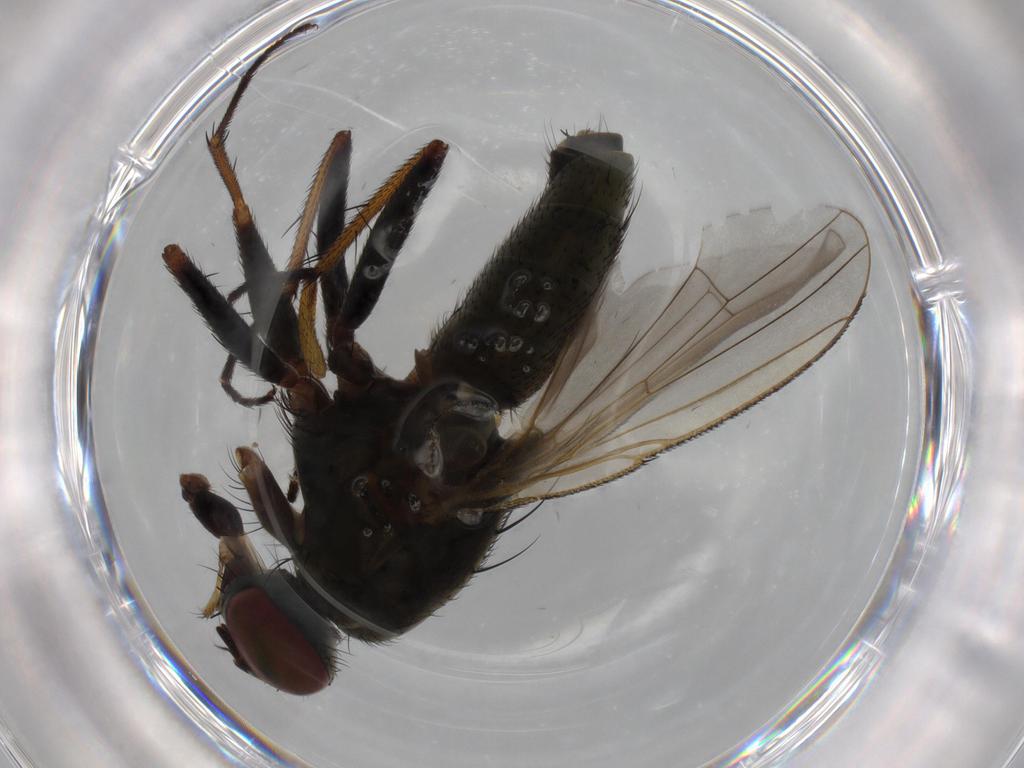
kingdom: Animalia
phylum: Arthropoda
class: Insecta
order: Diptera
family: Muscidae
